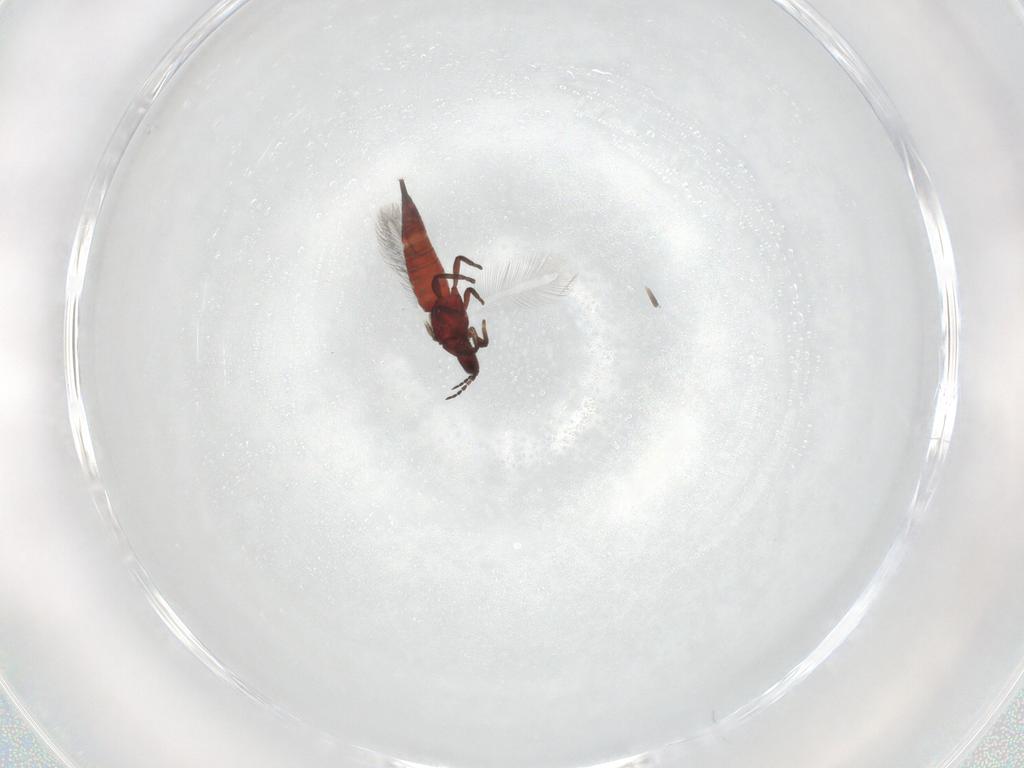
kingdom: Animalia
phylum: Arthropoda
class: Insecta
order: Thysanoptera
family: Phlaeothripidae
